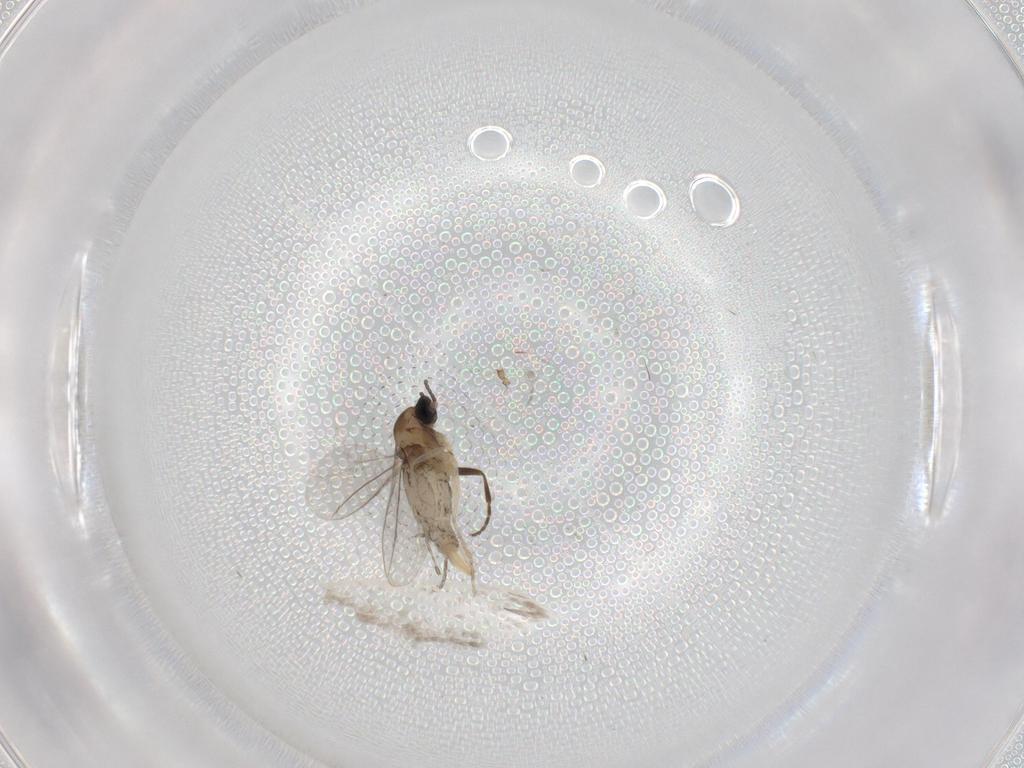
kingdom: Animalia
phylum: Arthropoda
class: Insecta
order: Diptera
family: Cecidomyiidae
